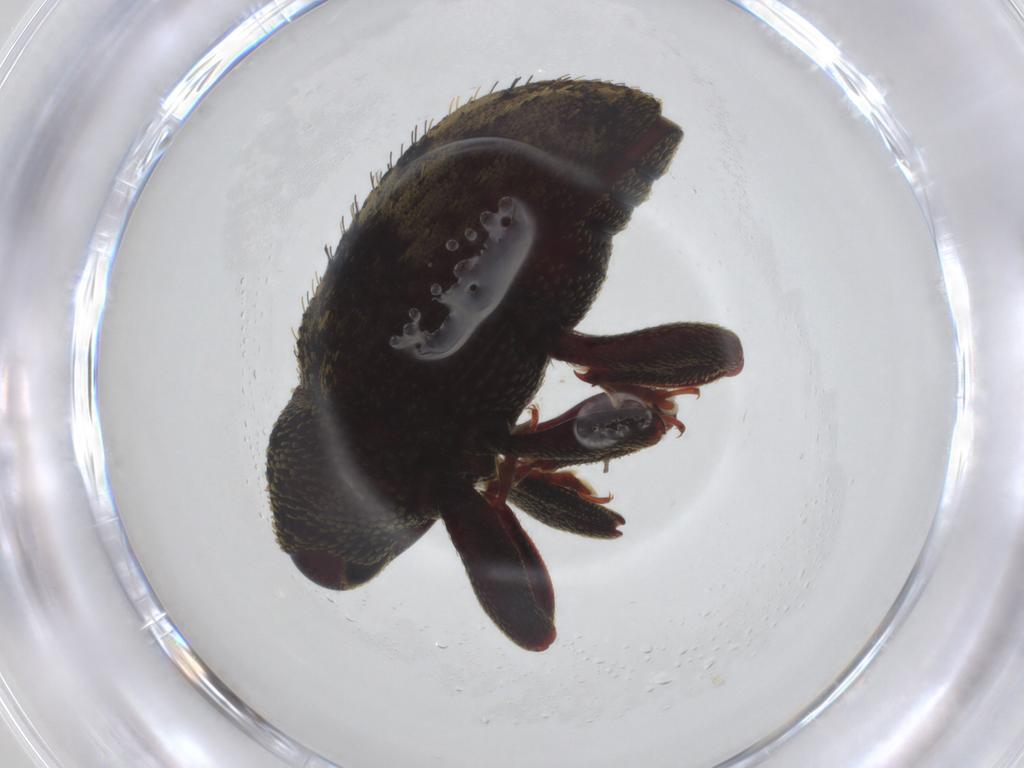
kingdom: Animalia
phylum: Arthropoda
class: Insecta
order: Coleoptera
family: Curculionidae
